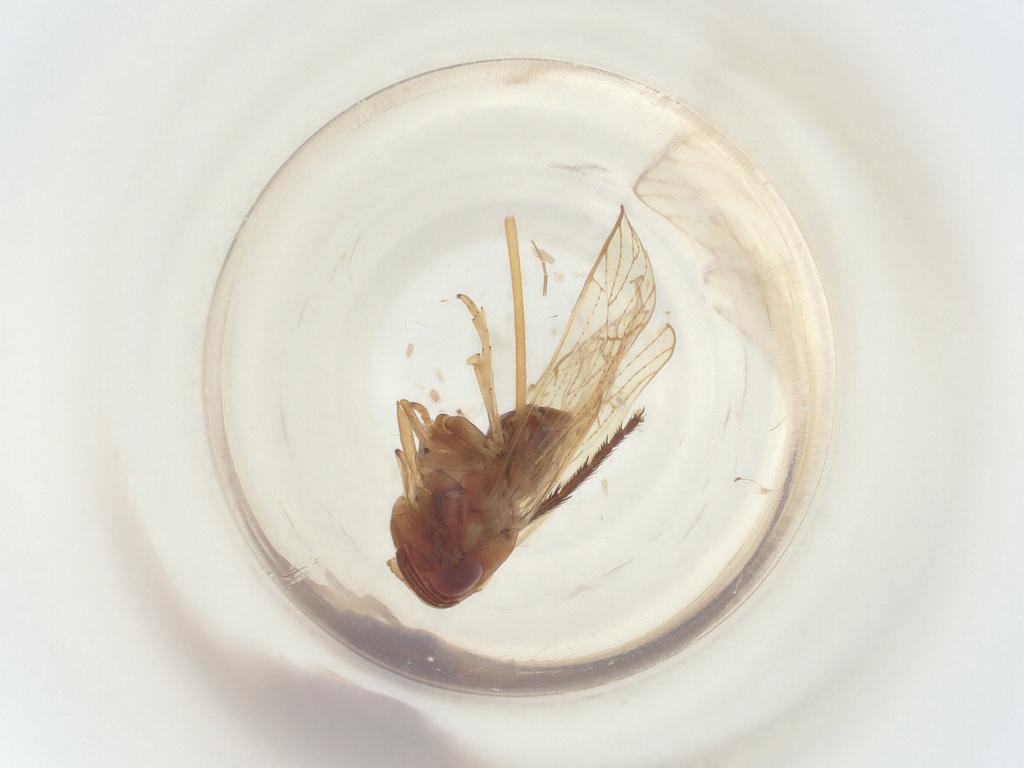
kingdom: Animalia
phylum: Arthropoda
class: Insecta
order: Diptera
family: Muscidae
